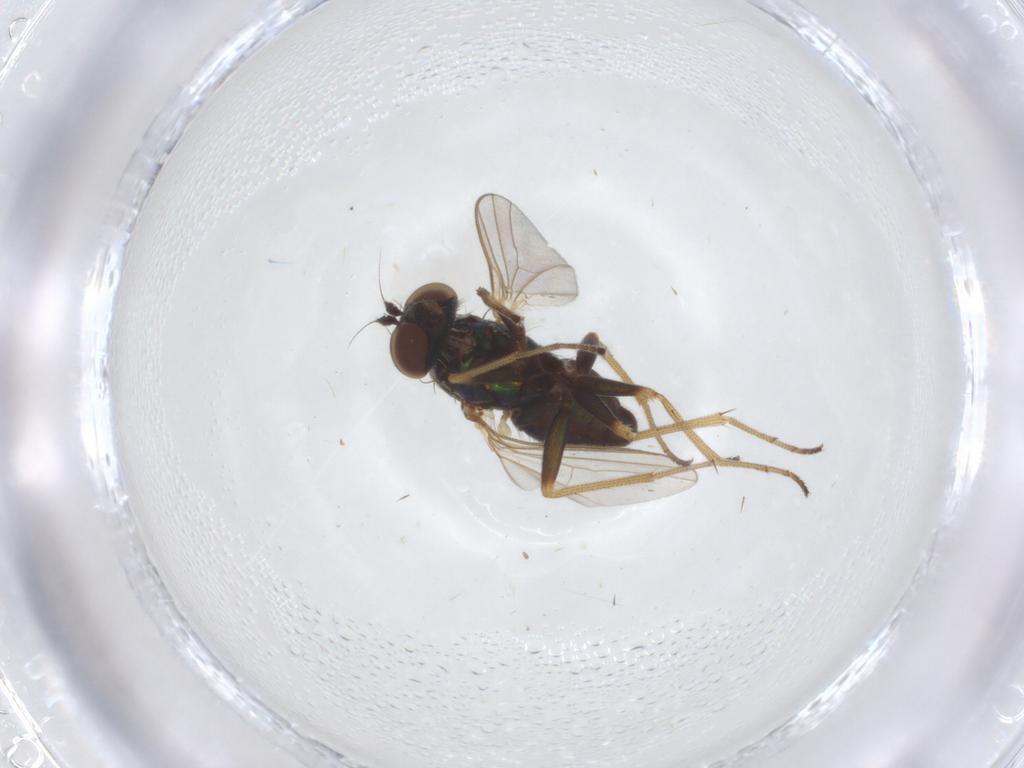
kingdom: Animalia
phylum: Arthropoda
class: Insecta
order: Diptera
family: Dolichopodidae
